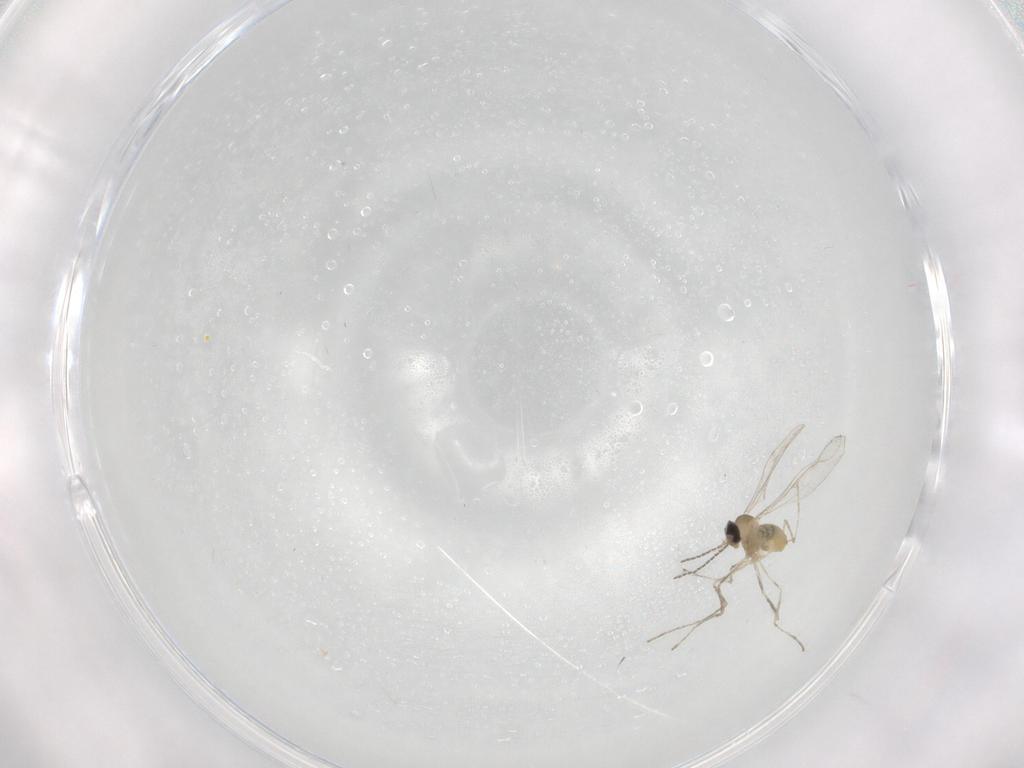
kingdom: Animalia
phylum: Arthropoda
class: Insecta
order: Diptera
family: Cecidomyiidae
